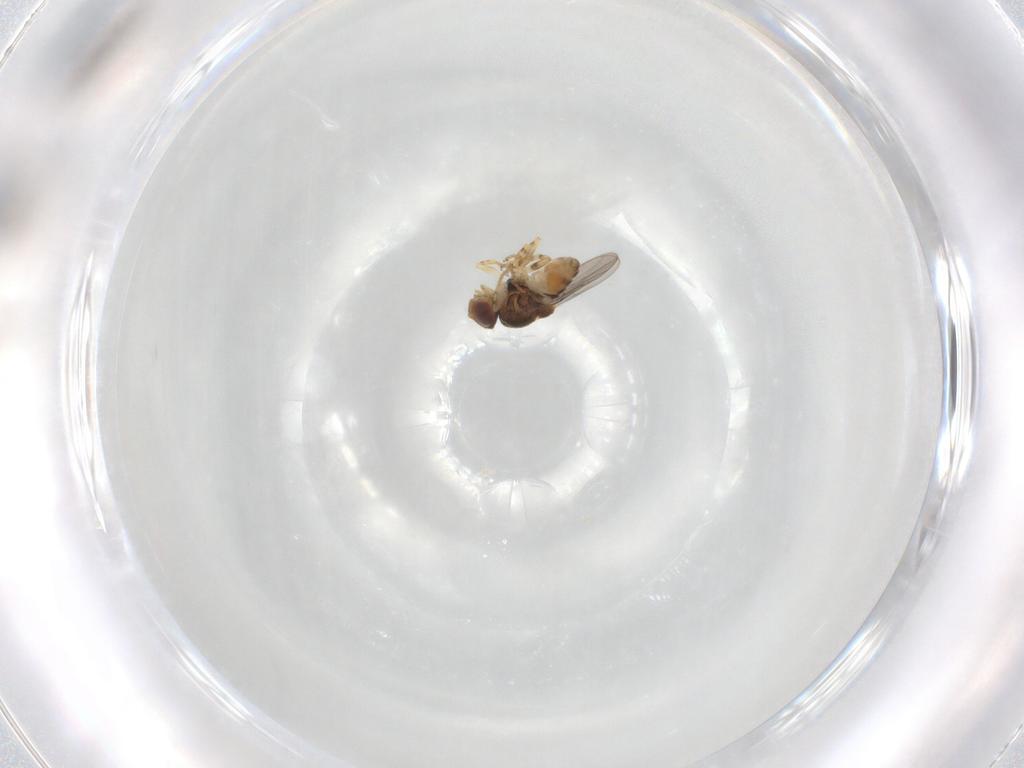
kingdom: Animalia
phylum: Arthropoda
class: Insecta
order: Diptera
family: Chloropidae
